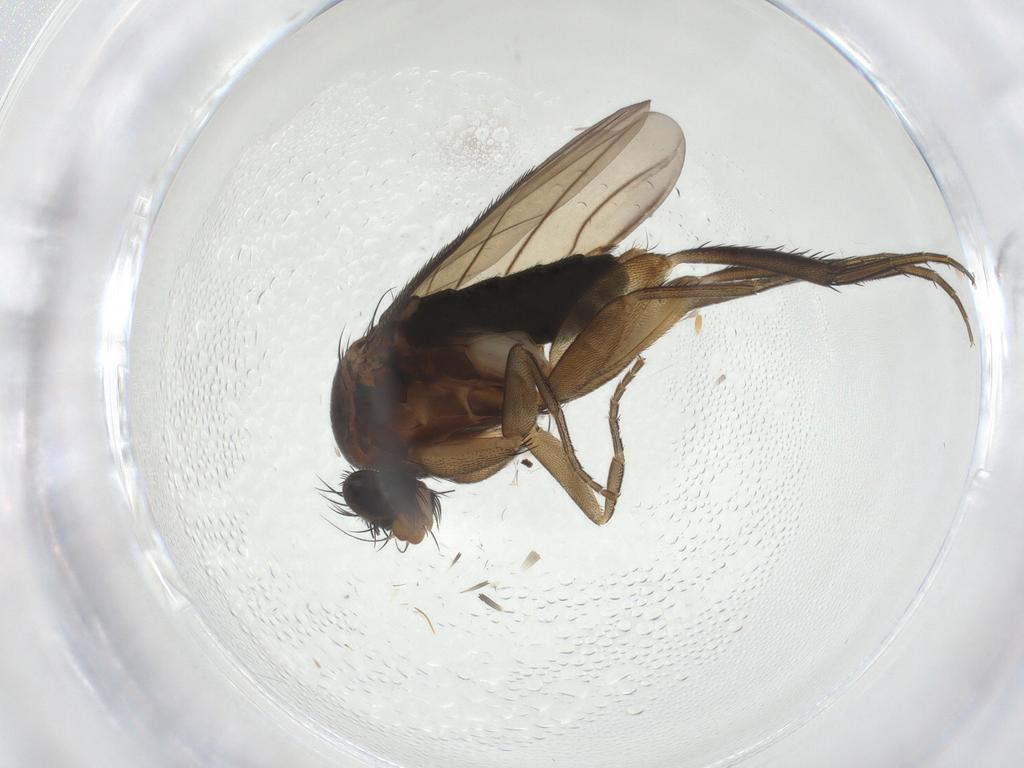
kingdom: Animalia
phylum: Arthropoda
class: Insecta
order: Diptera
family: Phoridae
